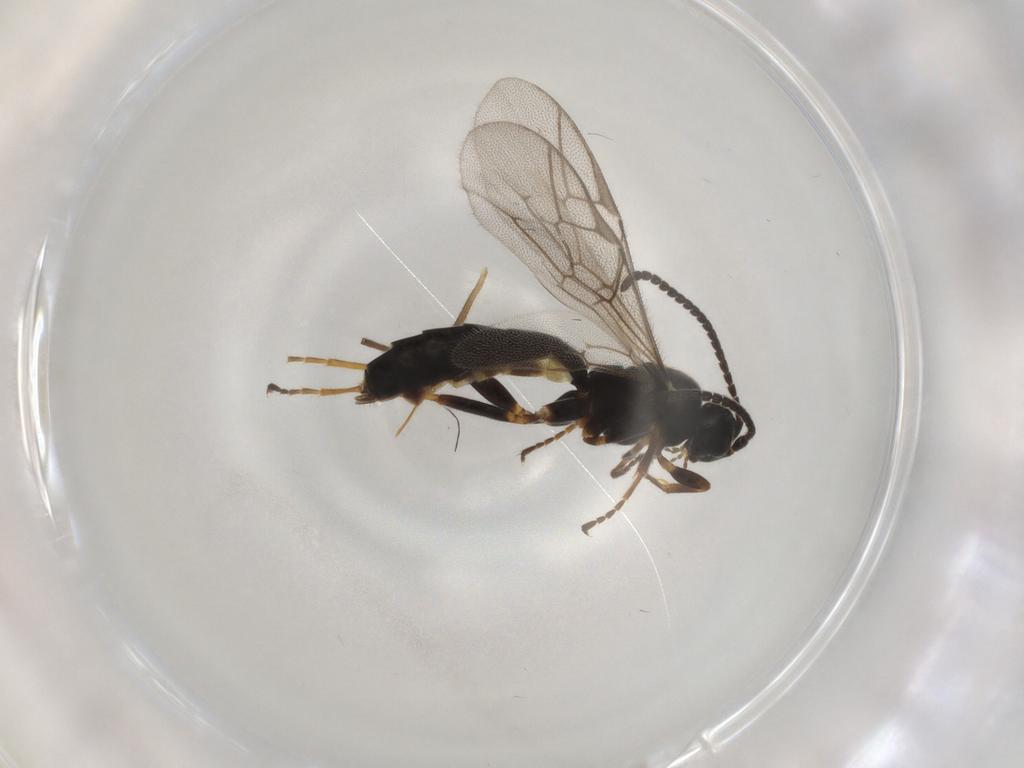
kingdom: Animalia
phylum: Arthropoda
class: Insecta
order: Hymenoptera
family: Ichneumonidae
